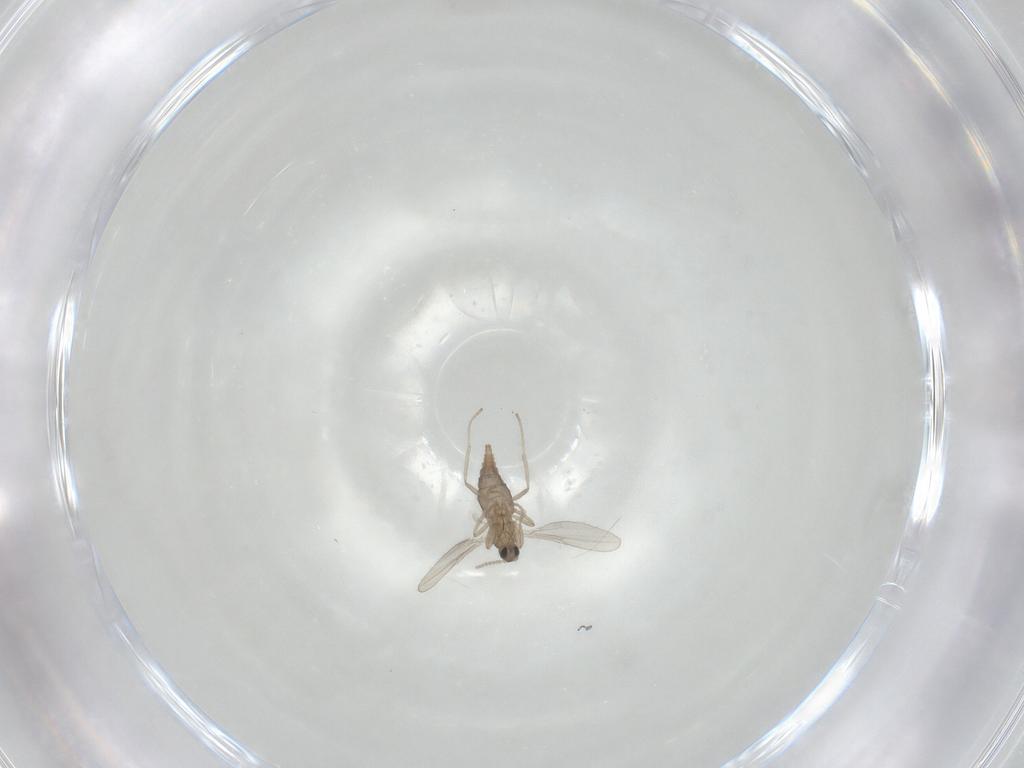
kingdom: Animalia
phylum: Arthropoda
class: Insecta
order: Diptera
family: Cecidomyiidae
